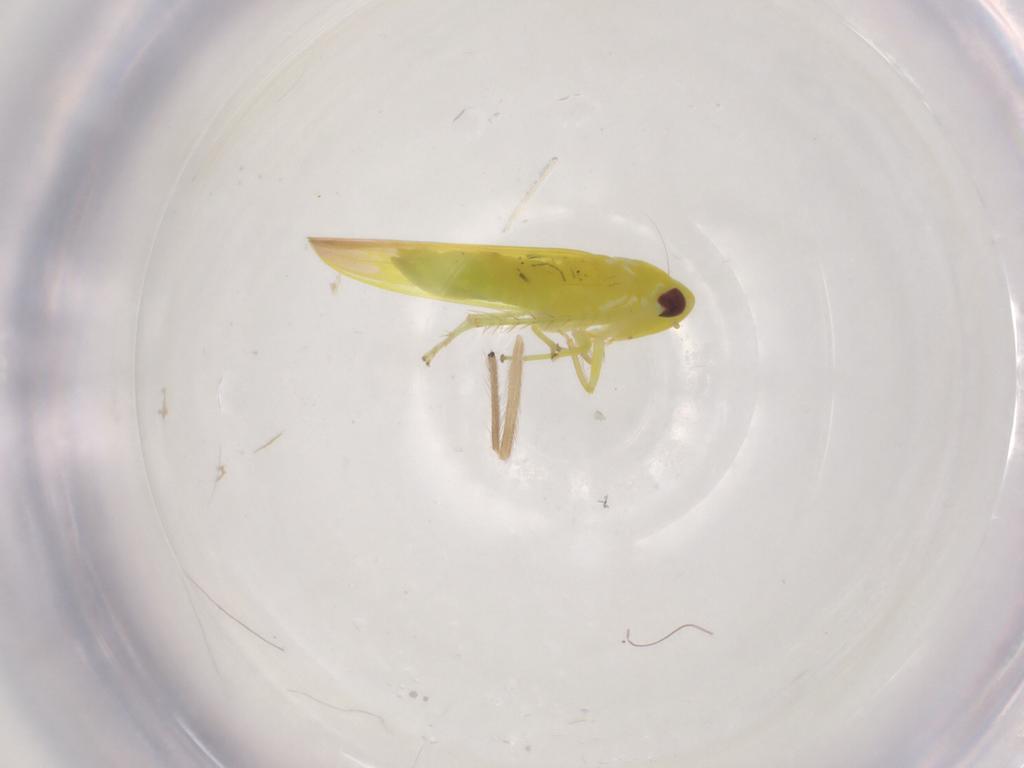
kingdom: Animalia
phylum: Arthropoda
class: Insecta
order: Hemiptera
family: Cicadellidae
